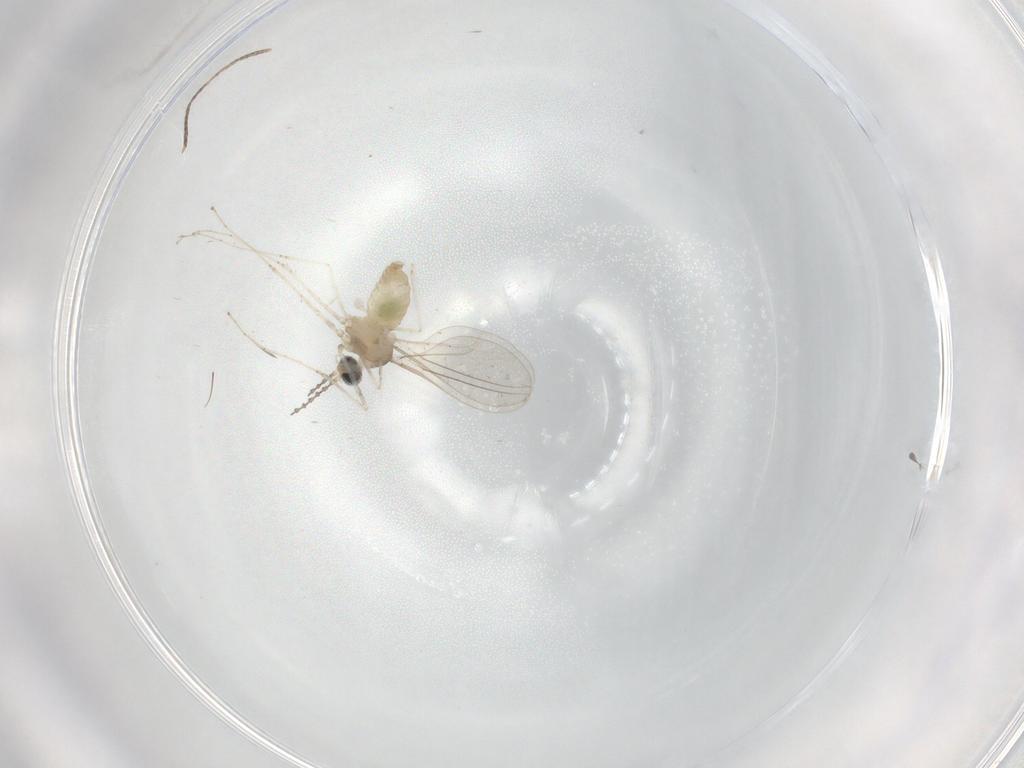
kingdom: Animalia
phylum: Arthropoda
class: Insecta
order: Diptera
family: Cecidomyiidae
